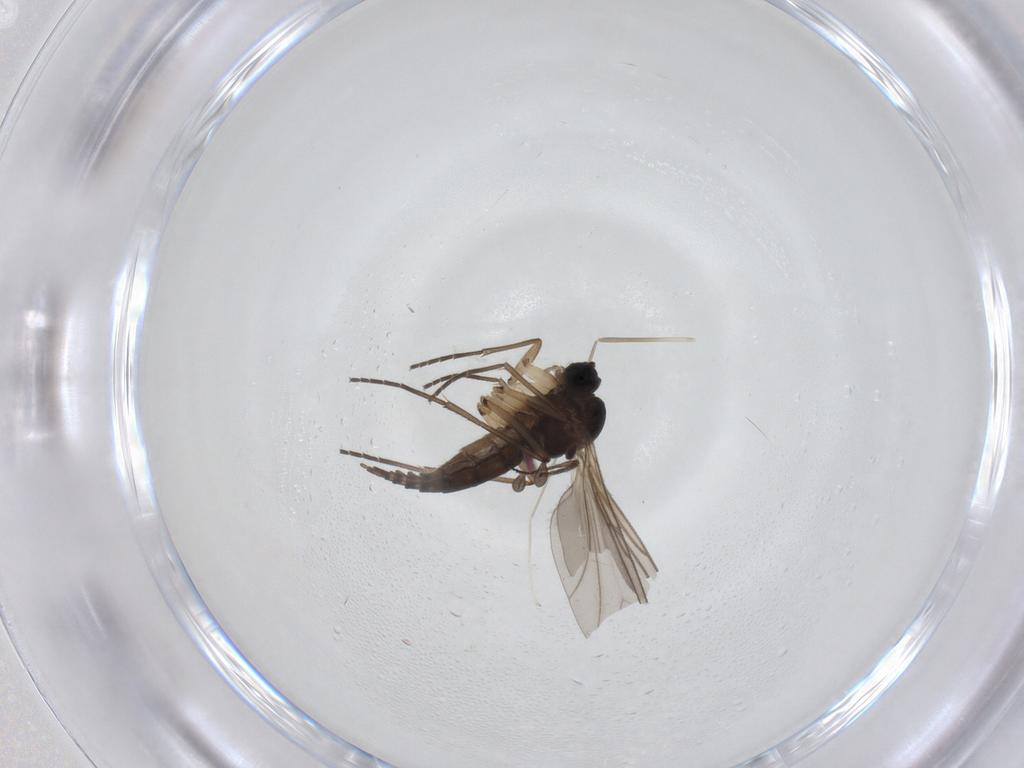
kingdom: Animalia
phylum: Arthropoda
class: Insecta
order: Diptera
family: Sciaridae
